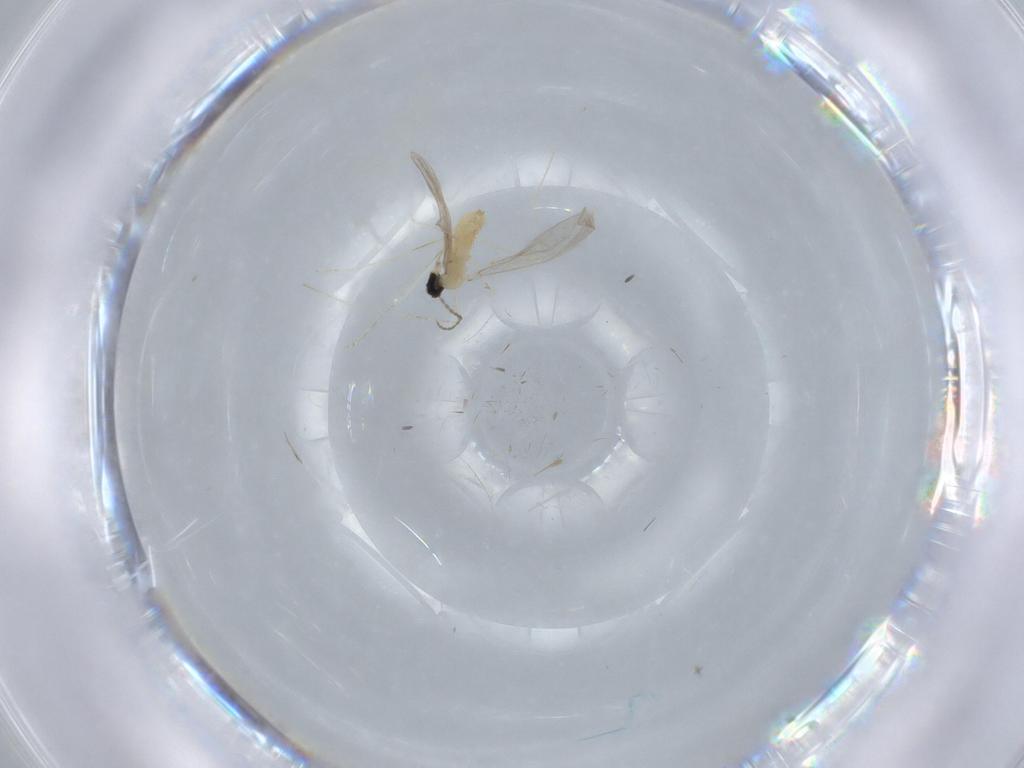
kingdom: Animalia
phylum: Arthropoda
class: Insecta
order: Diptera
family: Cecidomyiidae
